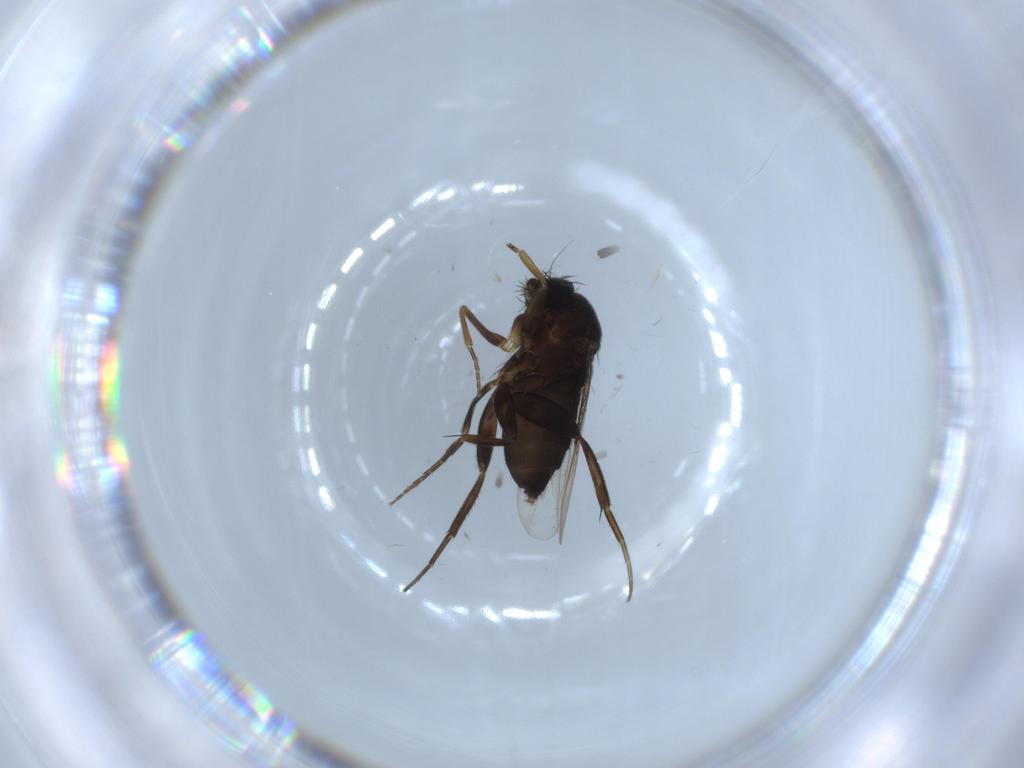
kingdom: Animalia
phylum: Arthropoda
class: Insecta
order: Diptera
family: Phoridae
